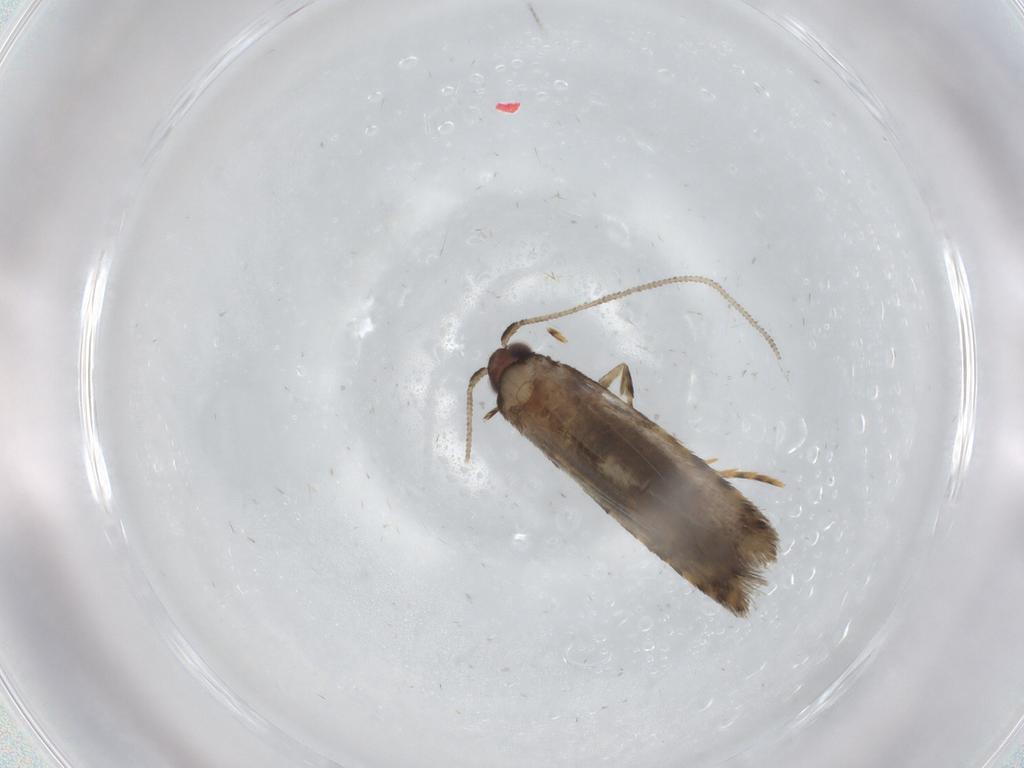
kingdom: Animalia
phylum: Arthropoda
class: Insecta
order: Lepidoptera
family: Tineidae
